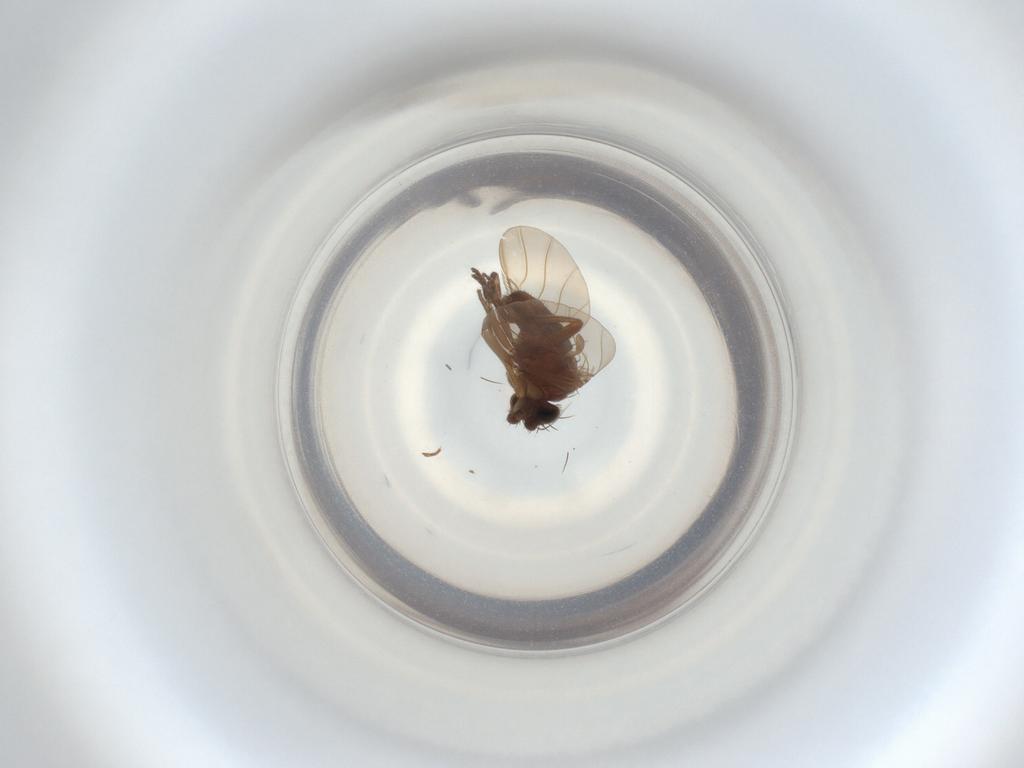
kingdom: Animalia
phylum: Arthropoda
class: Insecta
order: Diptera
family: Phoridae
